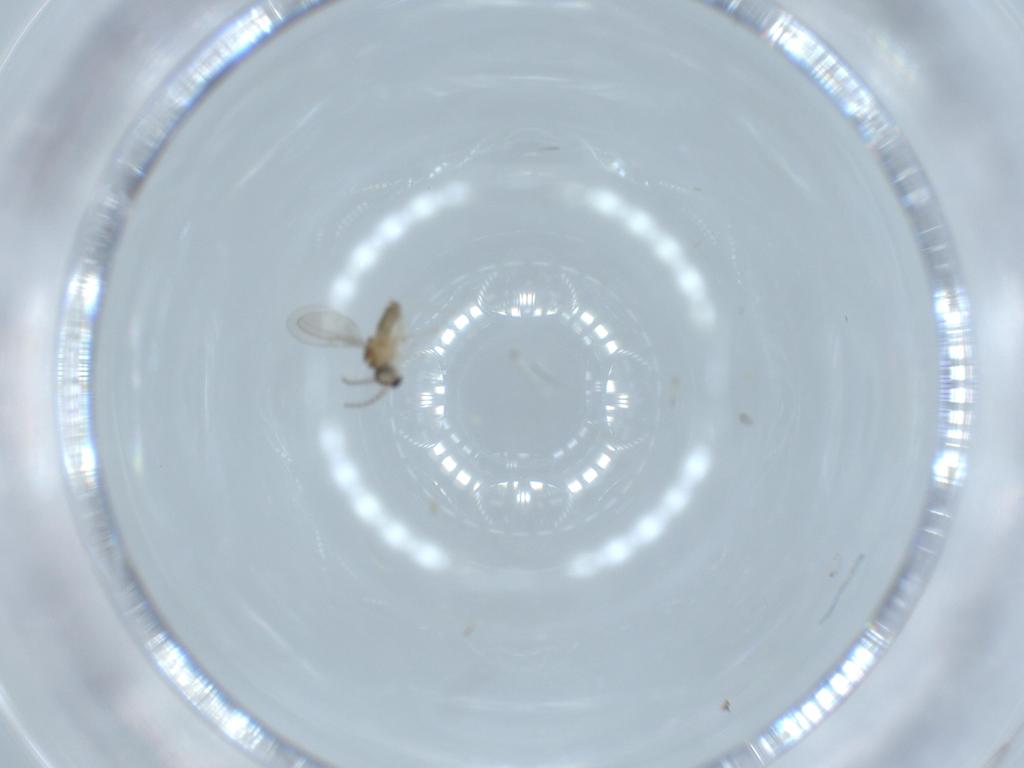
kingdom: Animalia
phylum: Arthropoda
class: Insecta
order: Diptera
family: Cecidomyiidae
